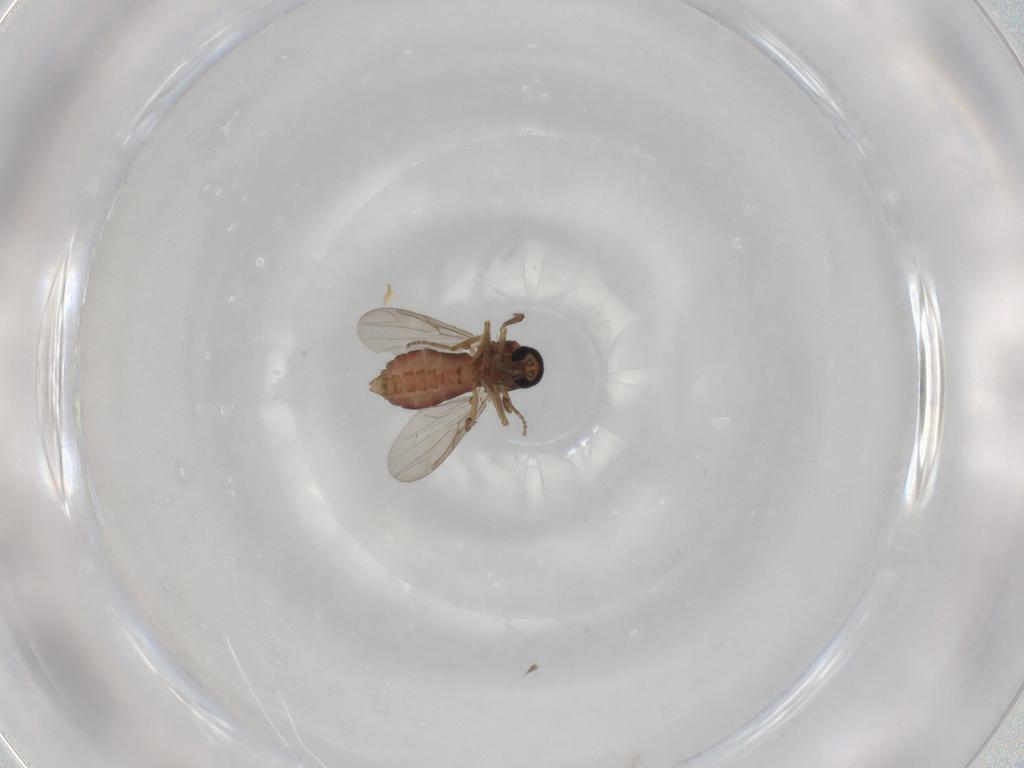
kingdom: Animalia
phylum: Arthropoda
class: Insecta
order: Diptera
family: Ceratopogonidae
